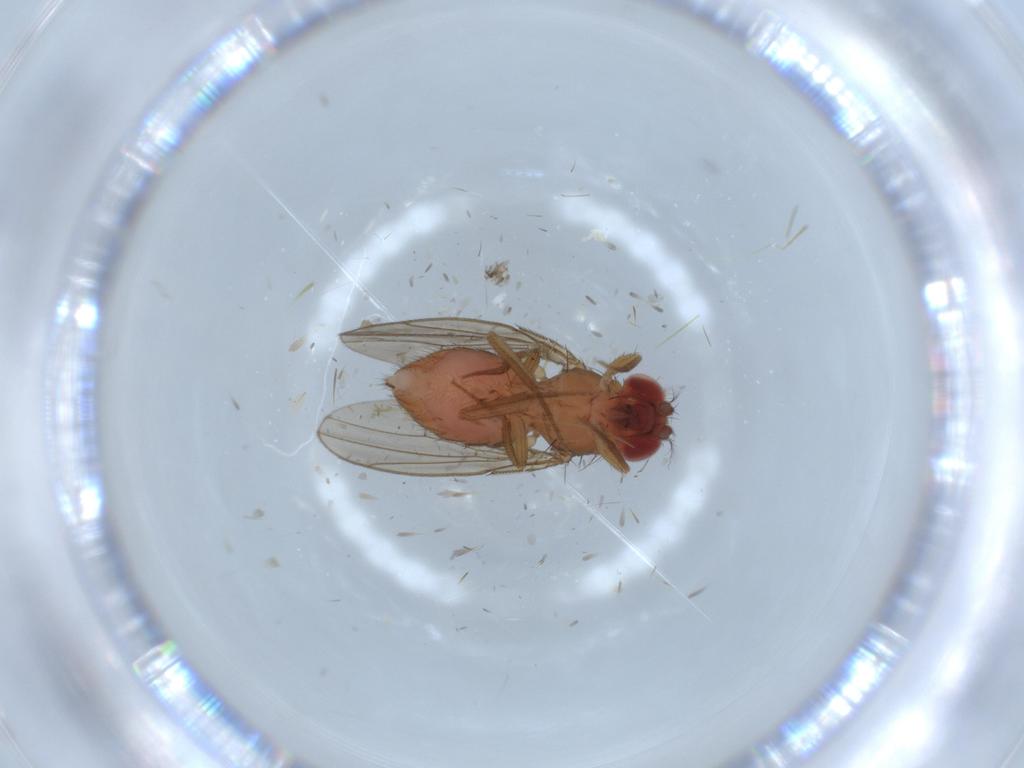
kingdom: Animalia
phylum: Arthropoda
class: Insecta
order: Diptera
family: Drosophilidae
